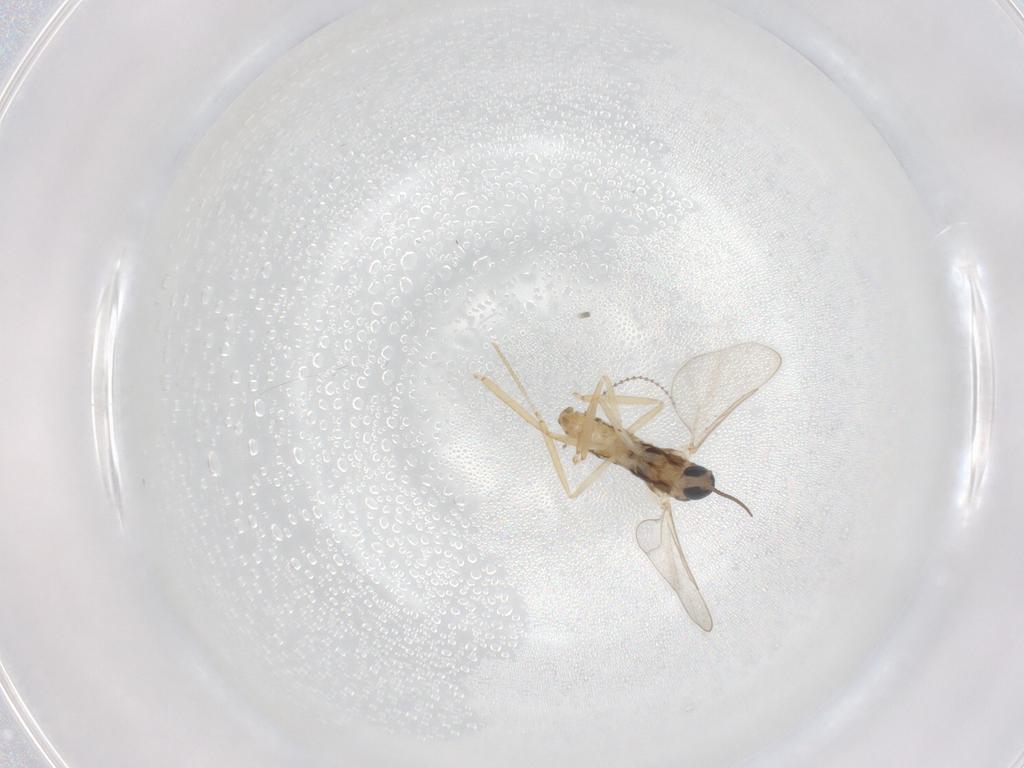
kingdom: Animalia
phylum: Arthropoda
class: Insecta
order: Diptera
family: Cecidomyiidae
